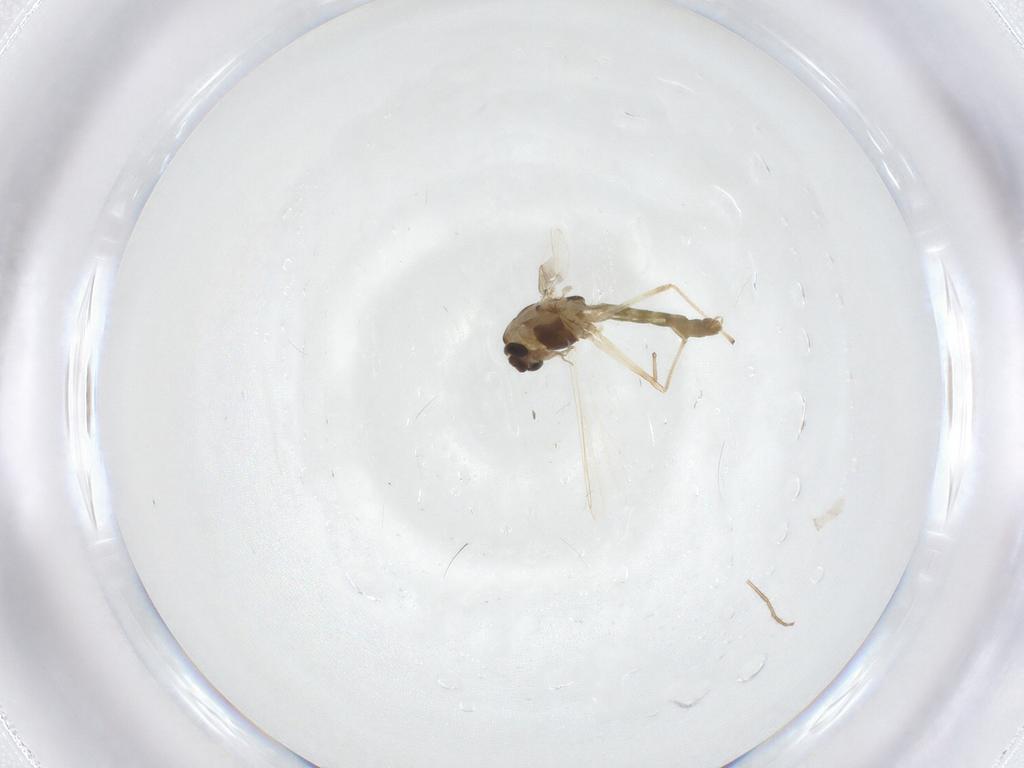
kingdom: Animalia
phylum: Arthropoda
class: Insecta
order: Diptera
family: Chironomidae
